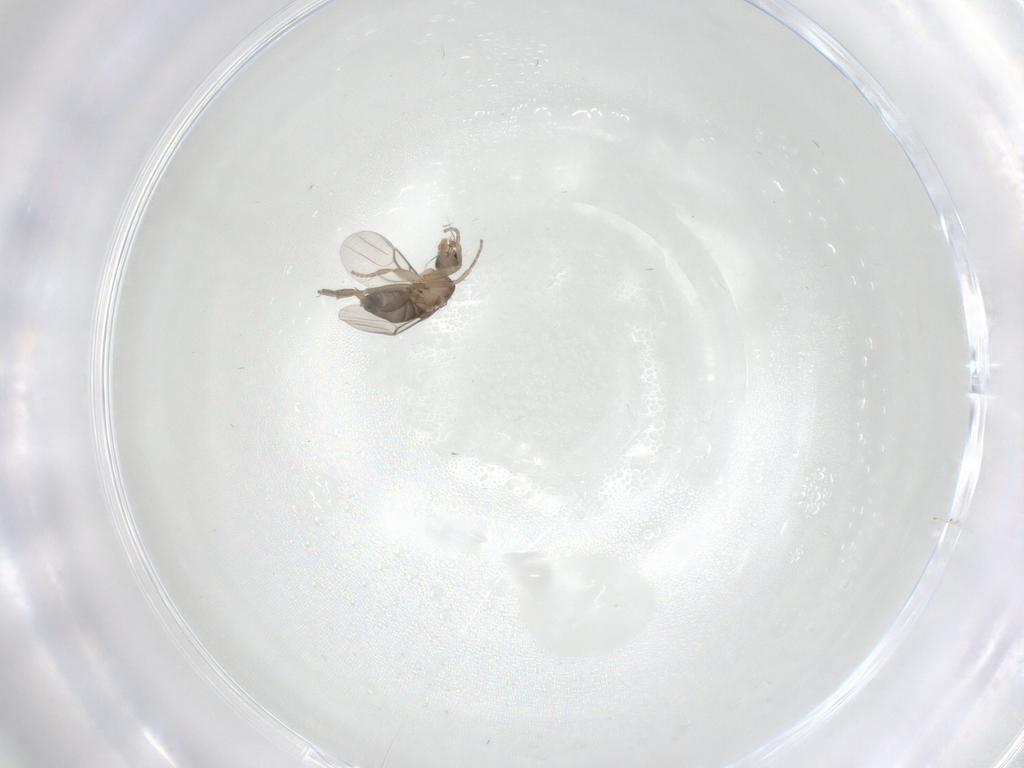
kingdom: Animalia
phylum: Arthropoda
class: Insecta
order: Diptera
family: Phoridae
